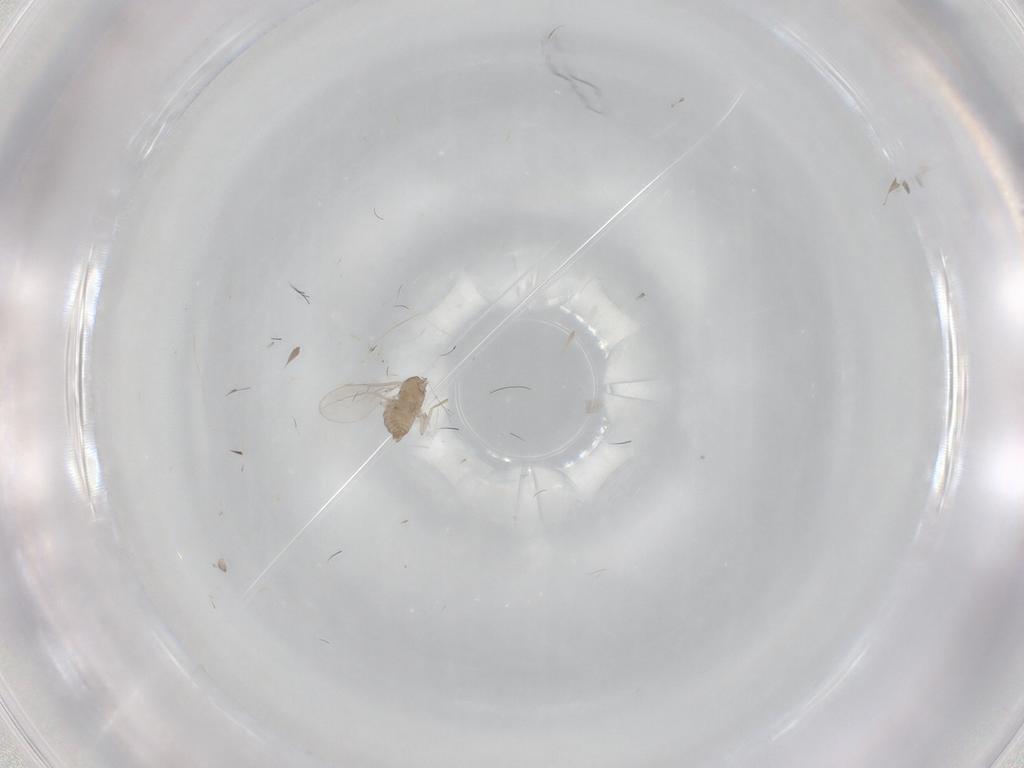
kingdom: Animalia
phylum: Arthropoda
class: Insecta
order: Diptera
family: Cecidomyiidae
